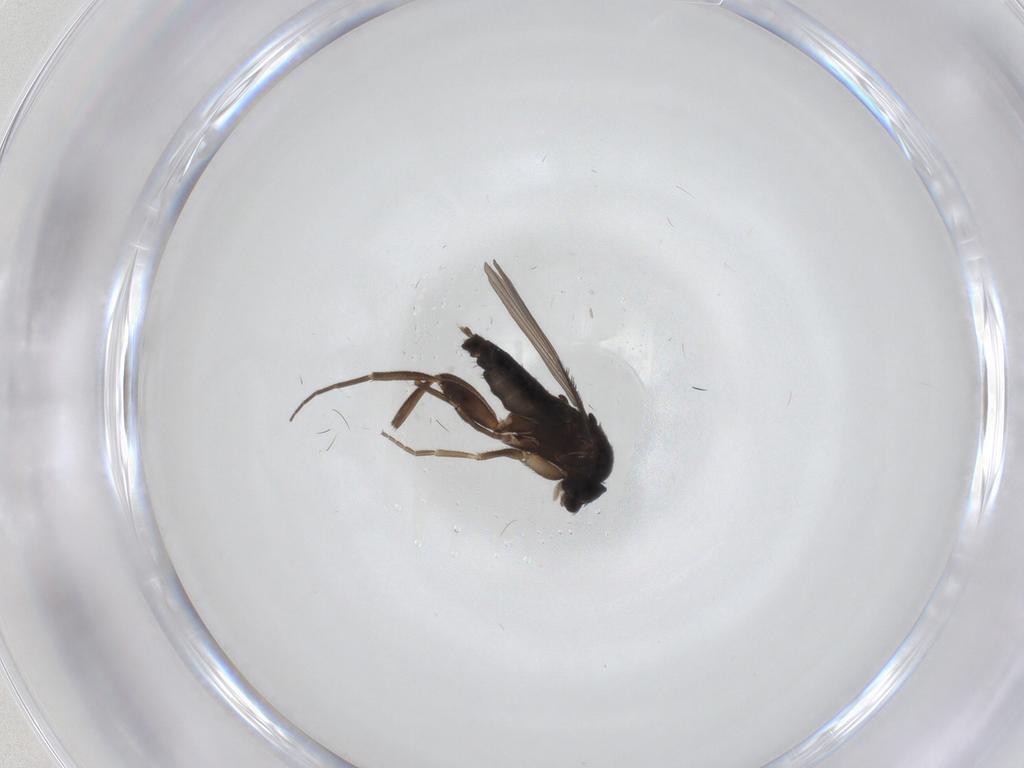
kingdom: Animalia
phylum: Arthropoda
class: Insecta
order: Diptera
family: Phoridae
